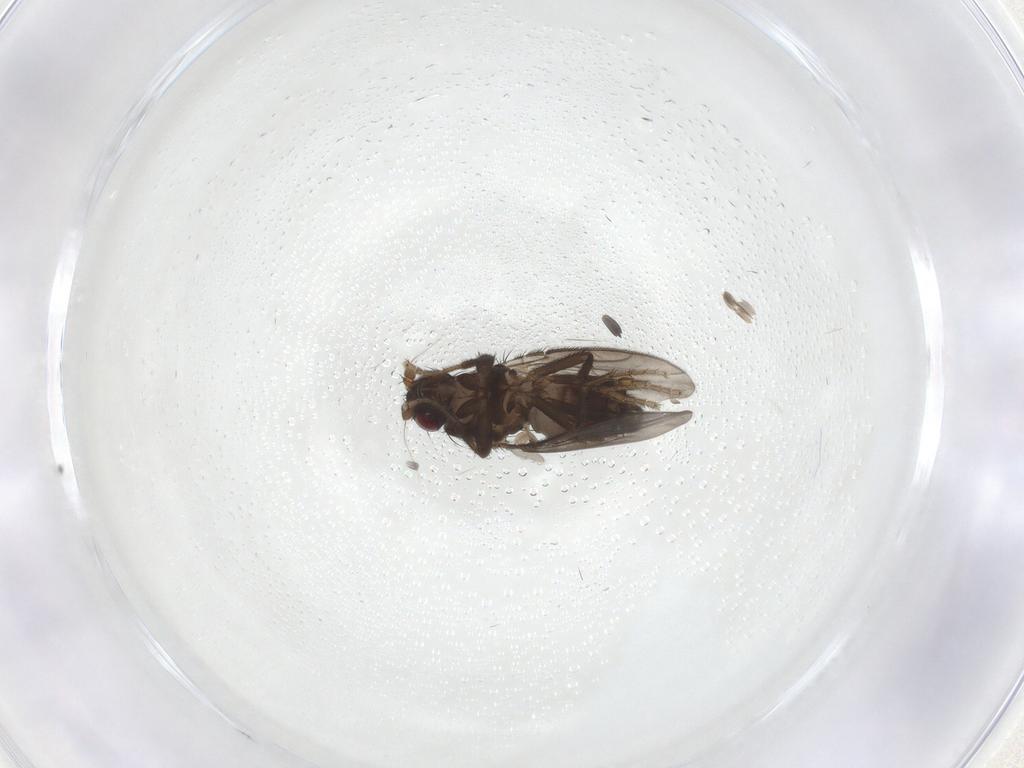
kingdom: Animalia
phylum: Arthropoda
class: Insecta
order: Diptera
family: Sphaeroceridae
